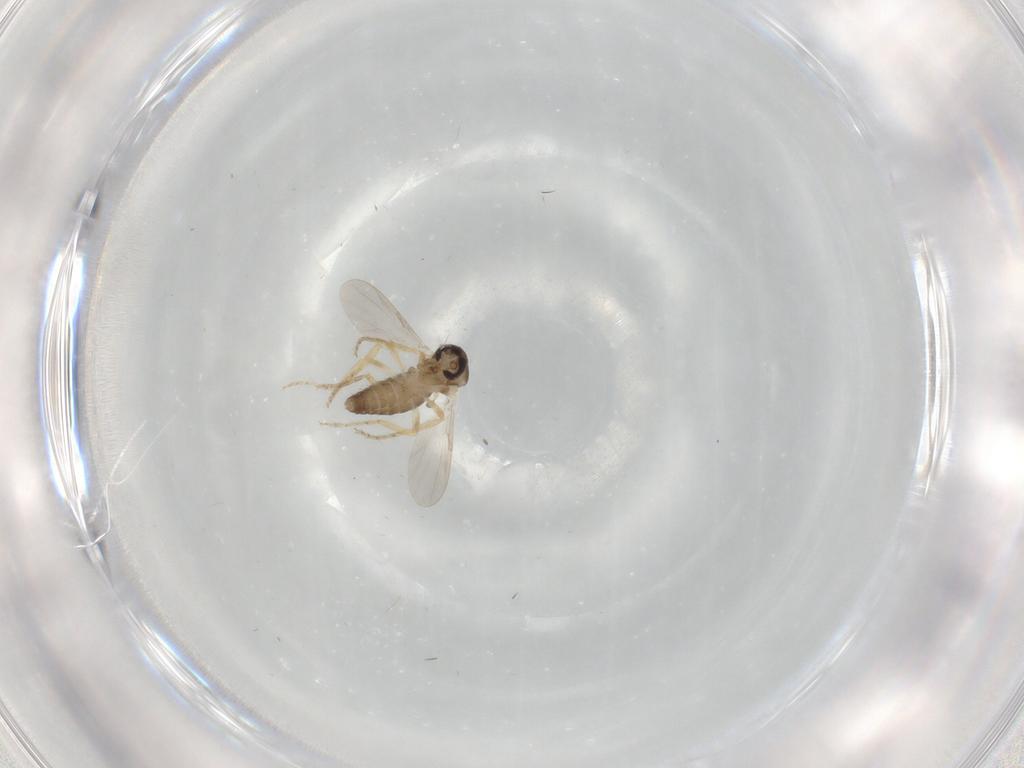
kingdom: Animalia
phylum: Arthropoda
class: Insecta
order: Diptera
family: Ceratopogonidae
